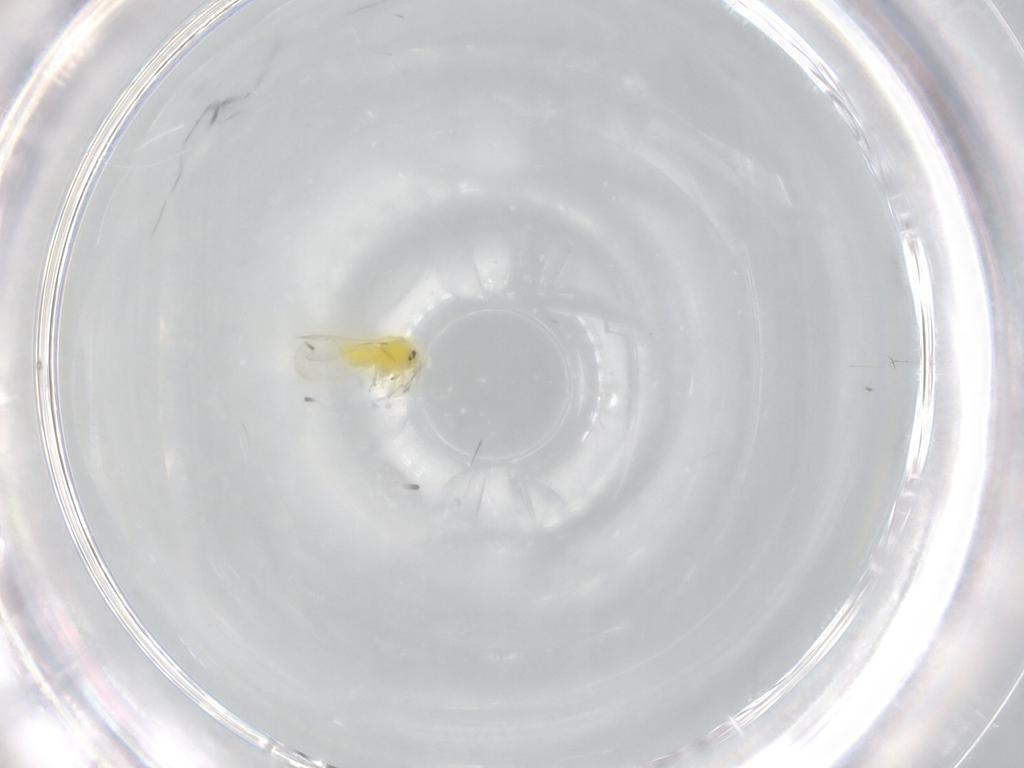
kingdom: Animalia
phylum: Arthropoda
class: Insecta
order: Hemiptera
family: Aleyrodidae
